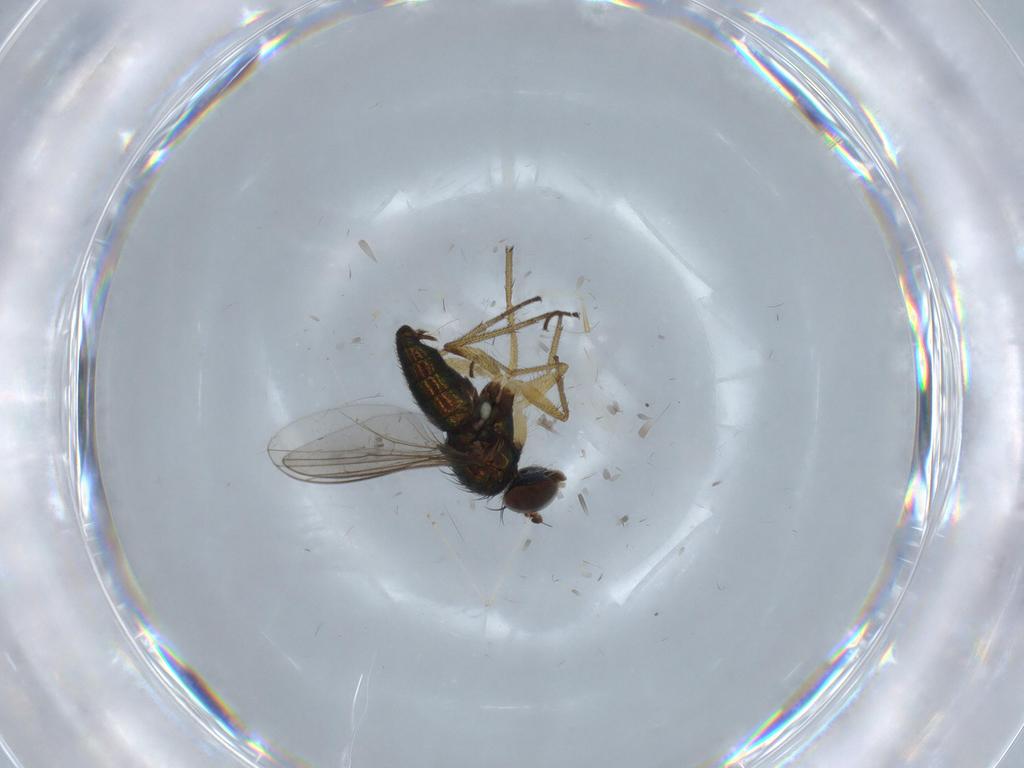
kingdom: Animalia
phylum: Arthropoda
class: Insecta
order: Diptera
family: Cecidomyiidae
